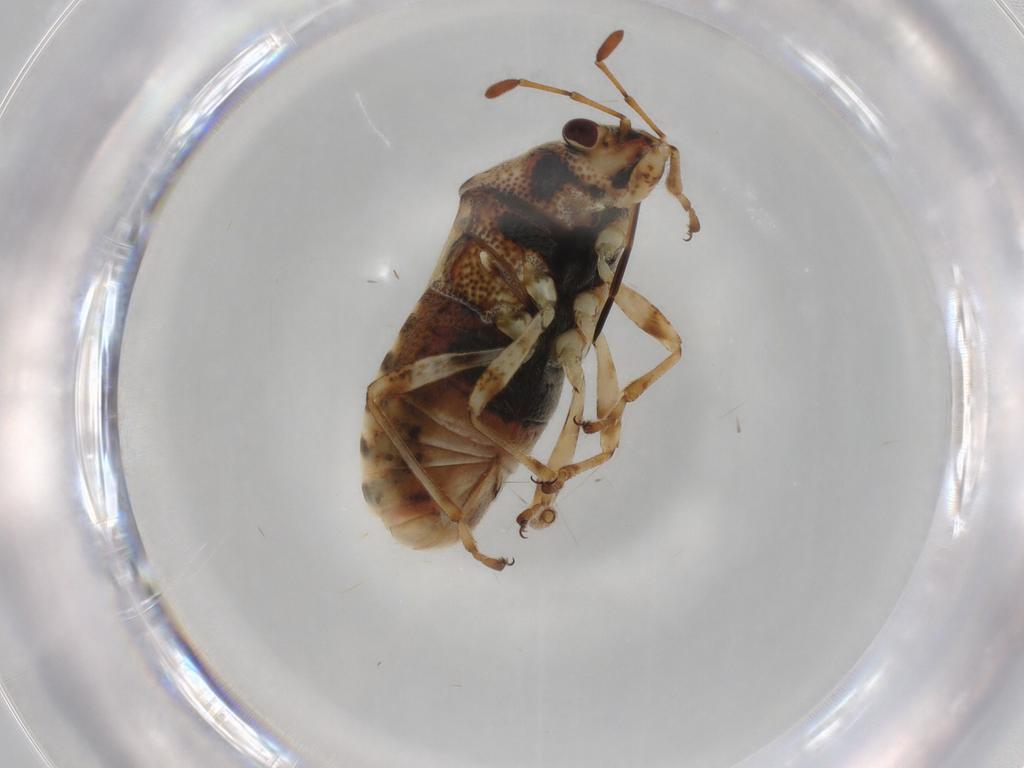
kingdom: Animalia
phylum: Arthropoda
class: Insecta
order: Hemiptera
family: Lygaeidae
